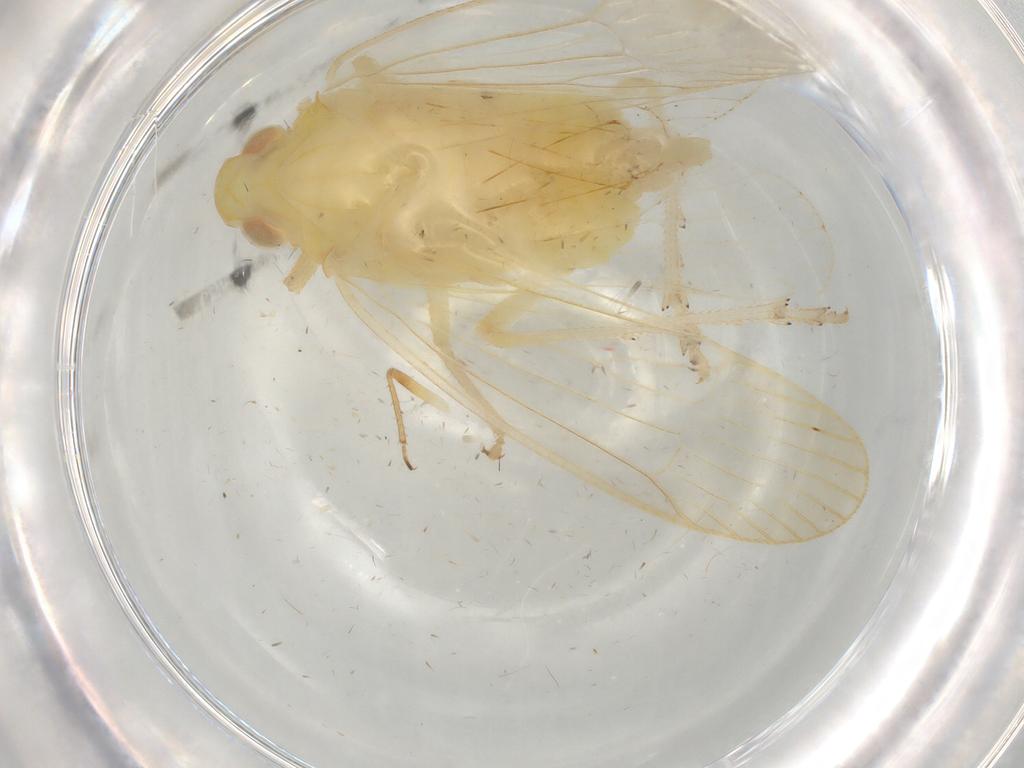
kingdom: Animalia
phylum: Arthropoda
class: Insecta
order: Hemiptera
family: Tropiduchidae
